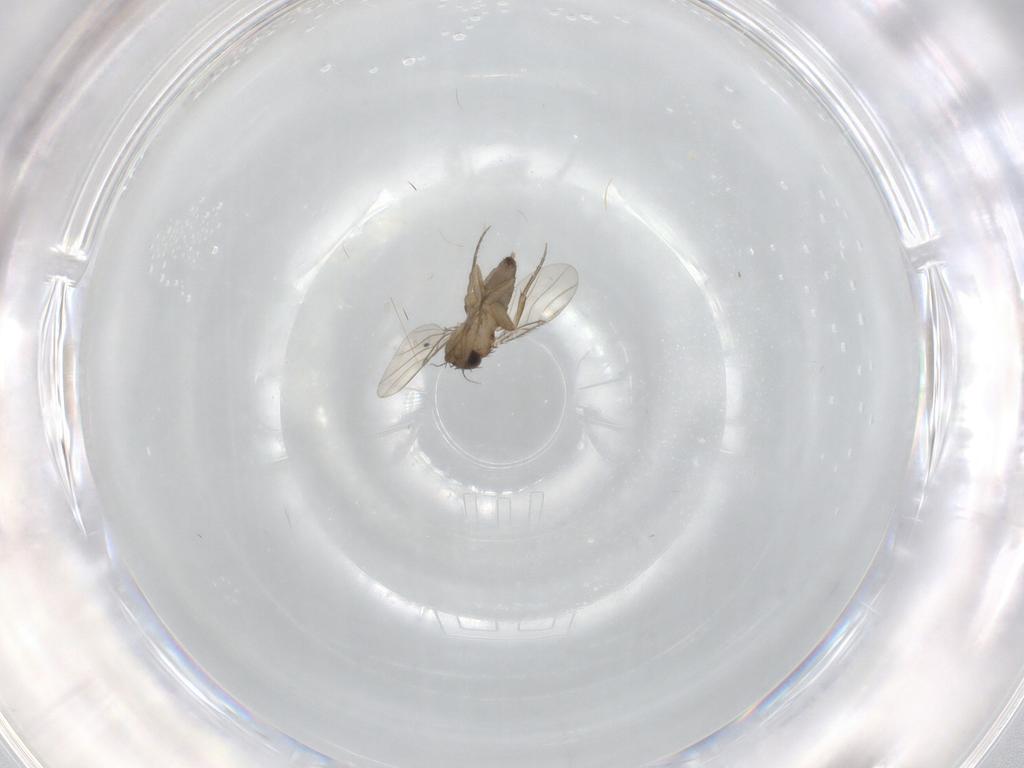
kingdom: Animalia
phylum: Arthropoda
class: Insecta
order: Diptera
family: Phoridae
